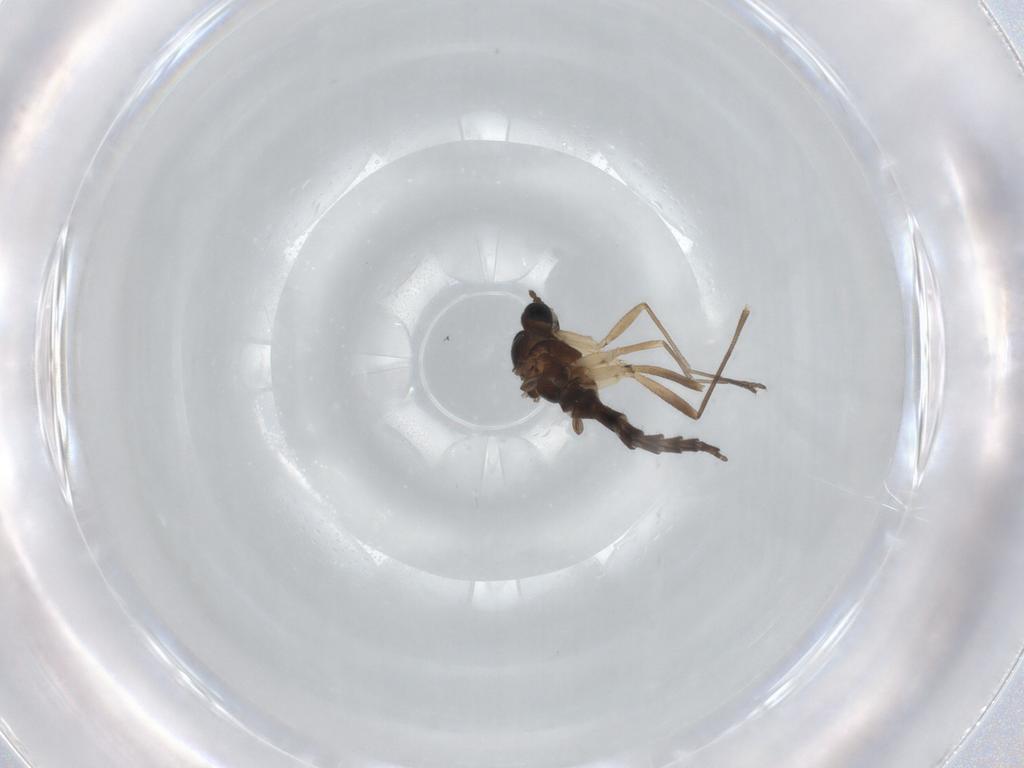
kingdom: Animalia
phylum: Arthropoda
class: Insecta
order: Diptera
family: Sciaridae
